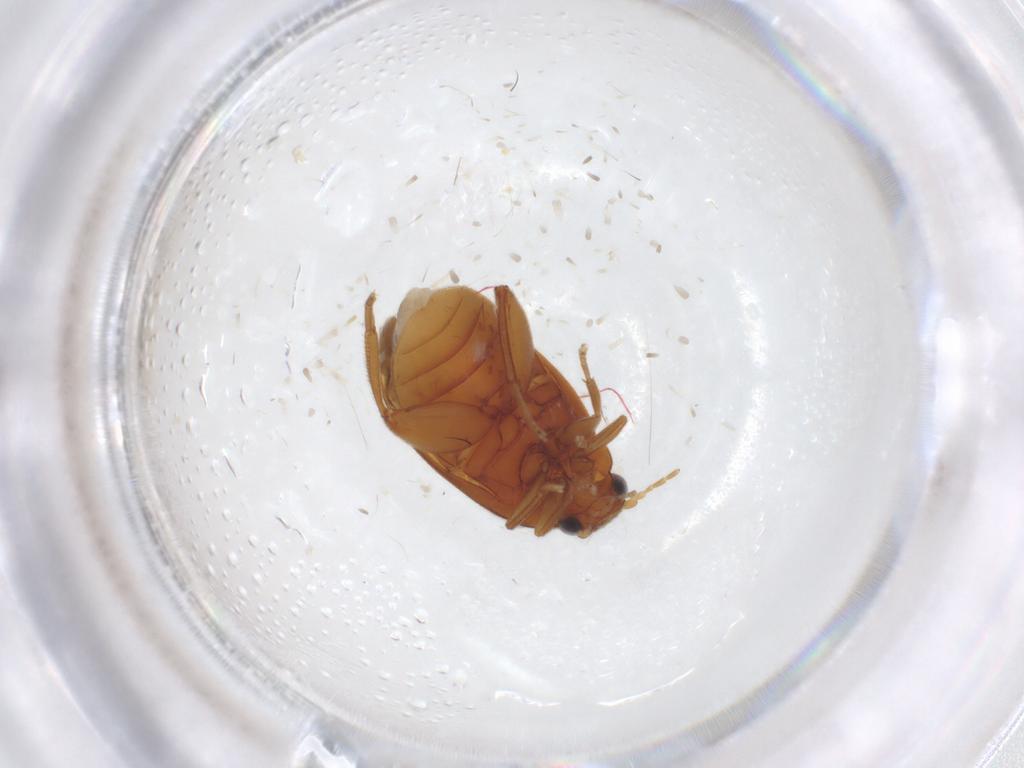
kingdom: Animalia
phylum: Arthropoda
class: Insecta
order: Coleoptera
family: Scirtidae
